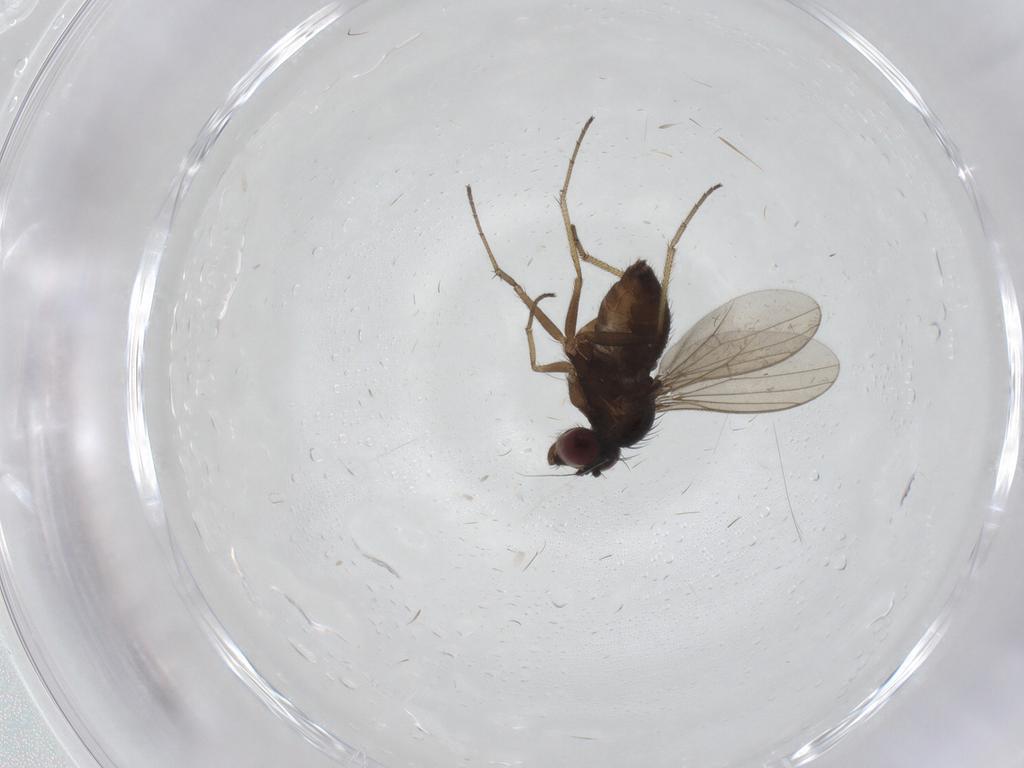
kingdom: Animalia
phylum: Arthropoda
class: Insecta
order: Diptera
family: Dolichopodidae
